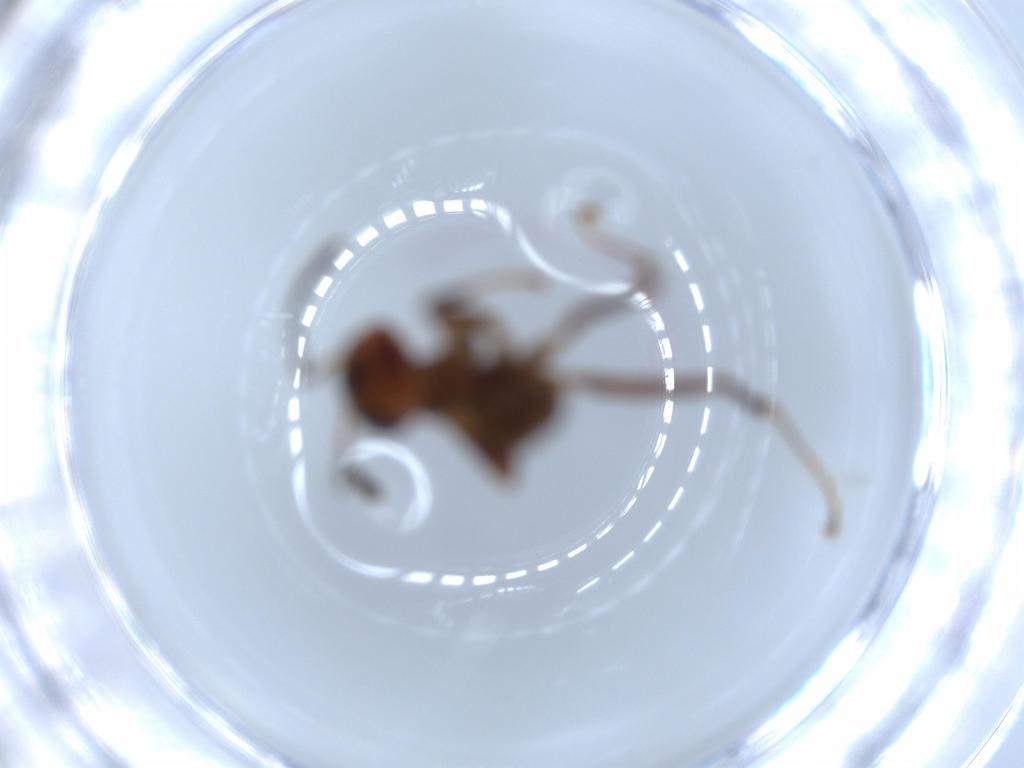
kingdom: Animalia
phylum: Arthropoda
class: Insecta
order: Hymenoptera
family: Formicidae
